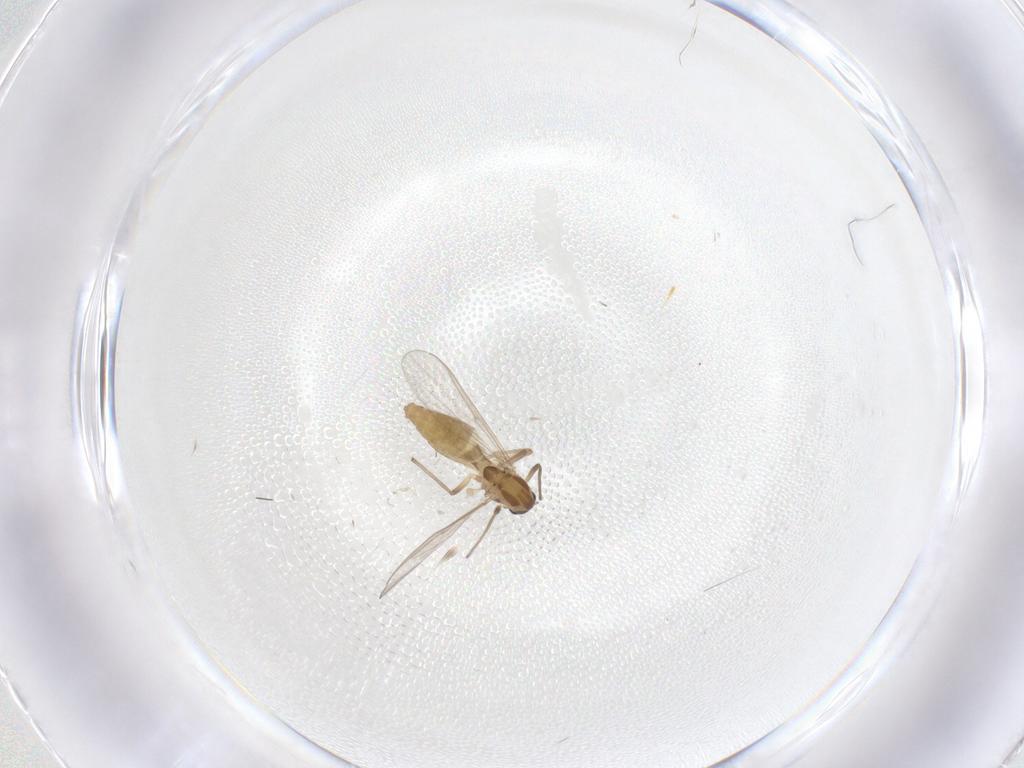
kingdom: Animalia
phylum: Arthropoda
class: Insecta
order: Diptera
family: Chironomidae
